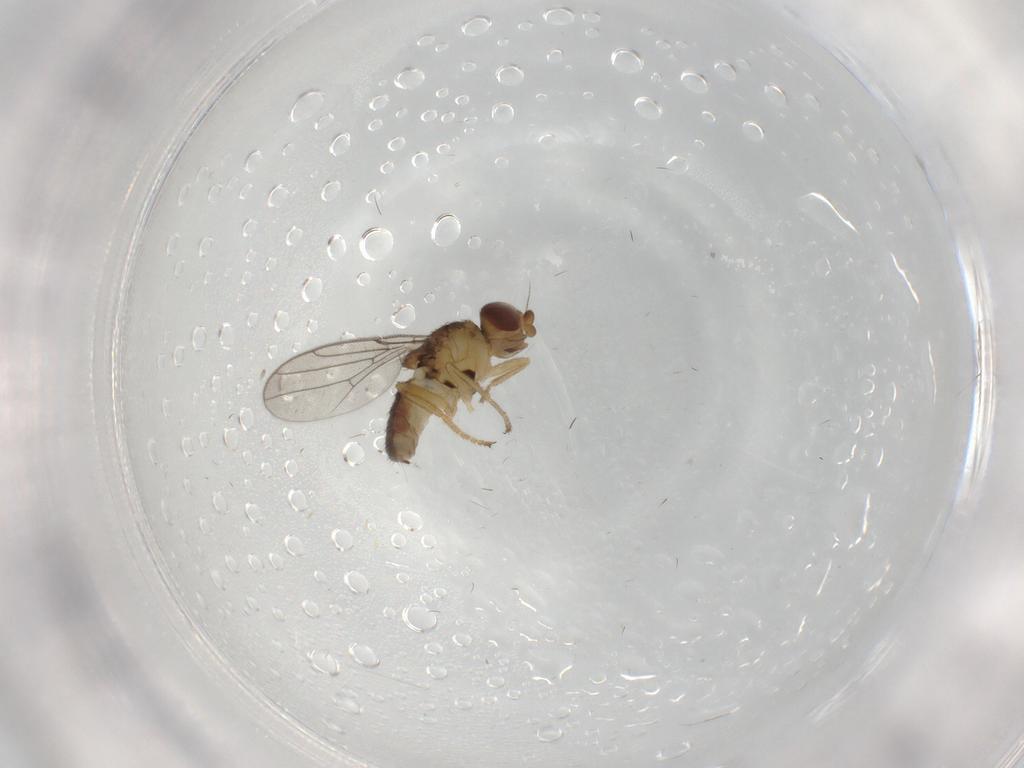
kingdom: Animalia
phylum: Arthropoda
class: Insecta
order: Diptera
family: Chloropidae
